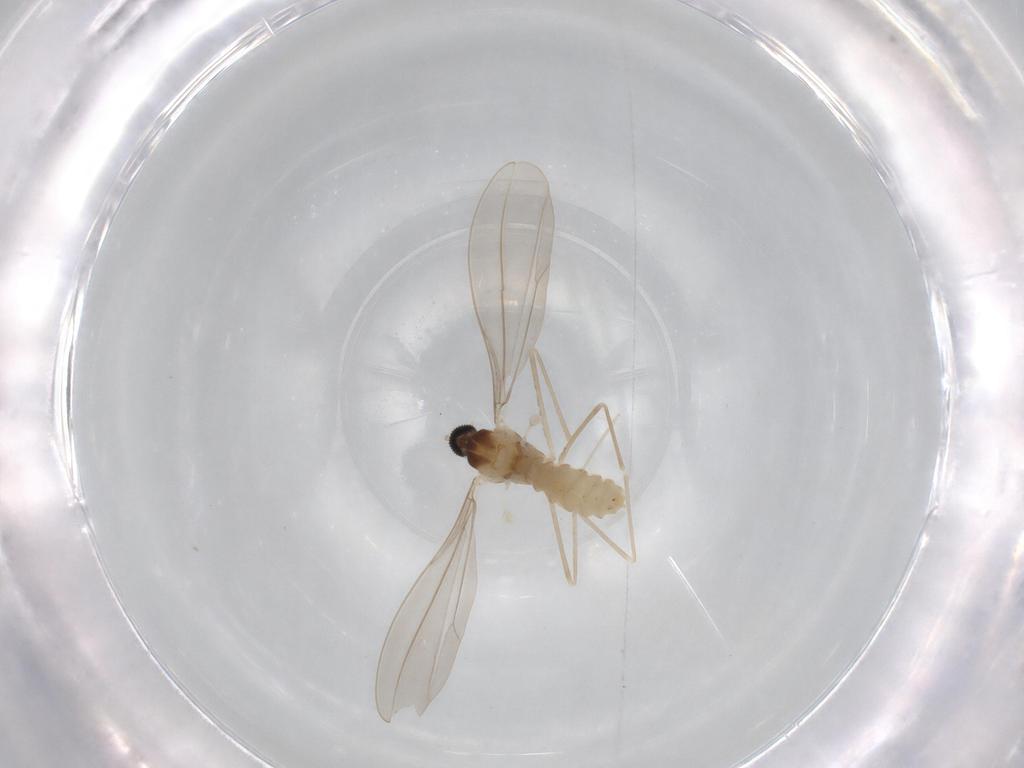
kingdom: Animalia
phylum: Arthropoda
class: Insecta
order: Diptera
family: Cecidomyiidae
